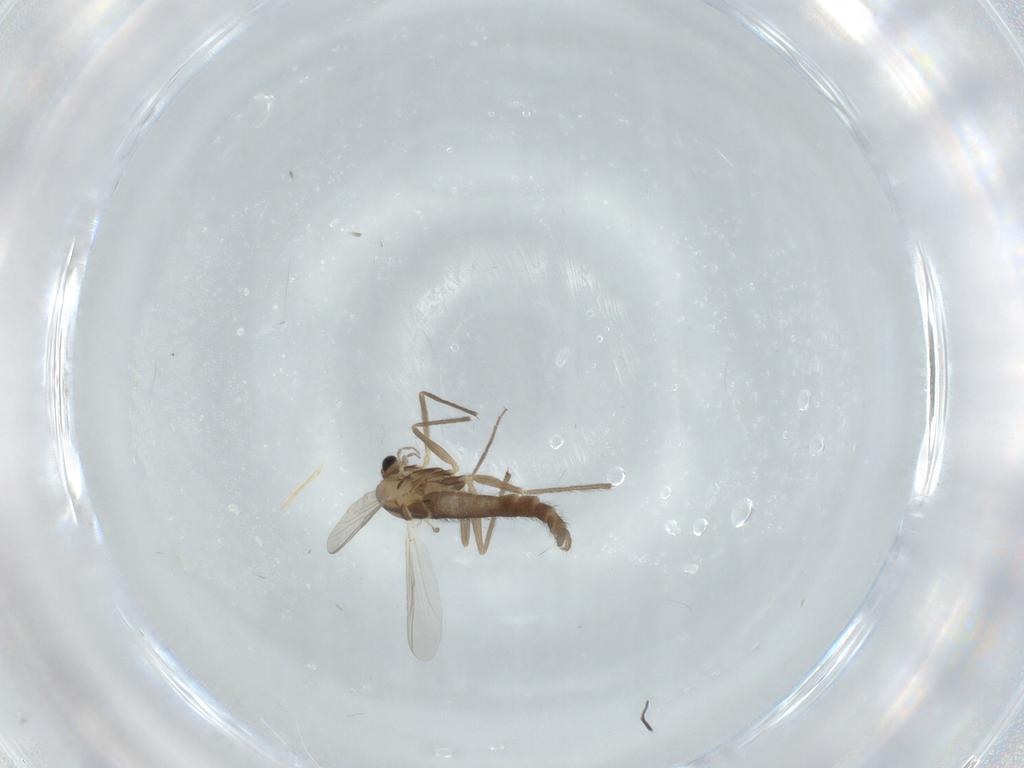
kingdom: Animalia
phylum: Arthropoda
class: Insecta
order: Diptera
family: Chironomidae
